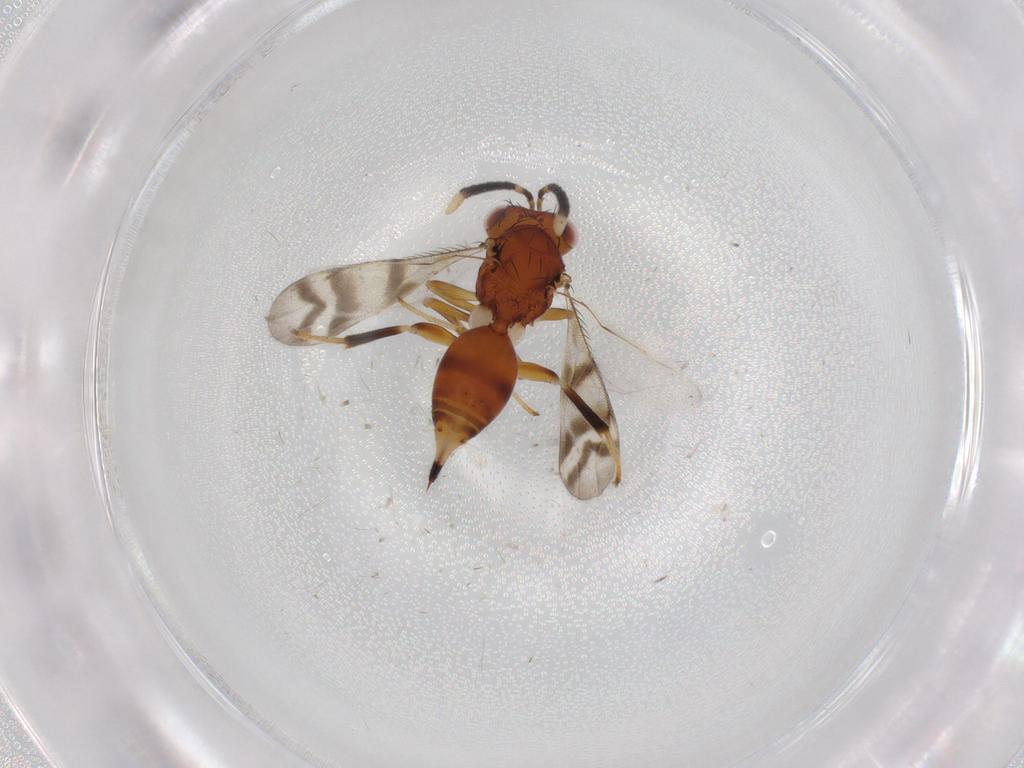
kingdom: Animalia
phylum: Arthropoda
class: Insecta
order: Hymenoptera
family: Diparidae
